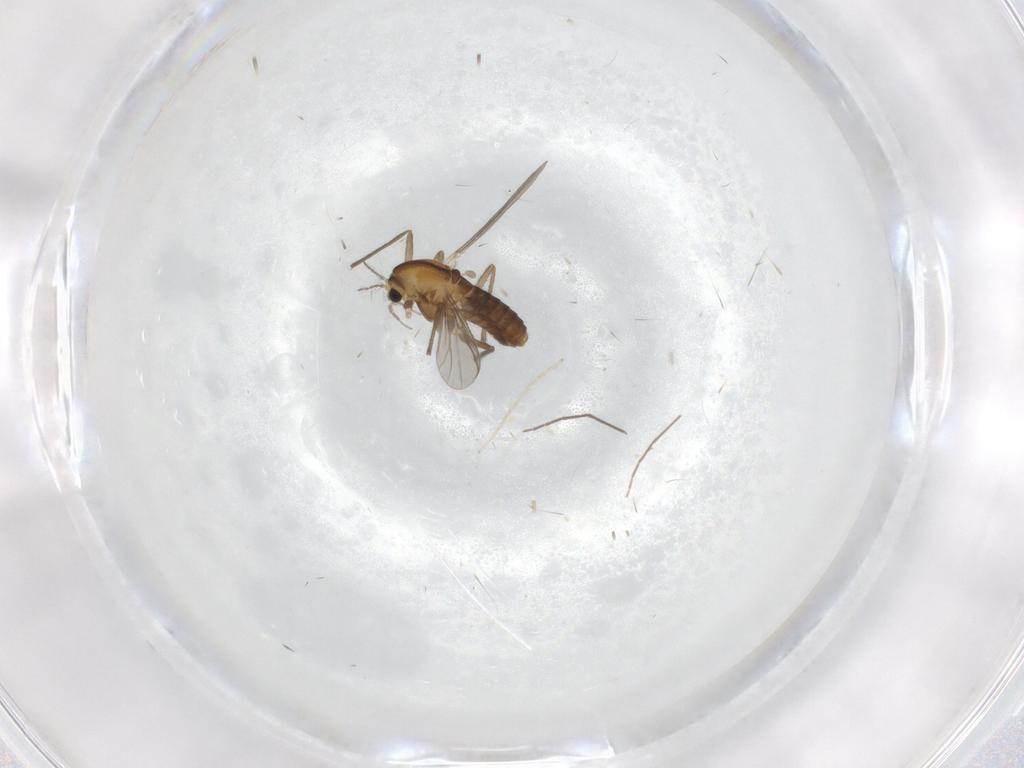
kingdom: Animalia
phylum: Arthropoda
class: Insecta
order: Diptera
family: Chironomidae
